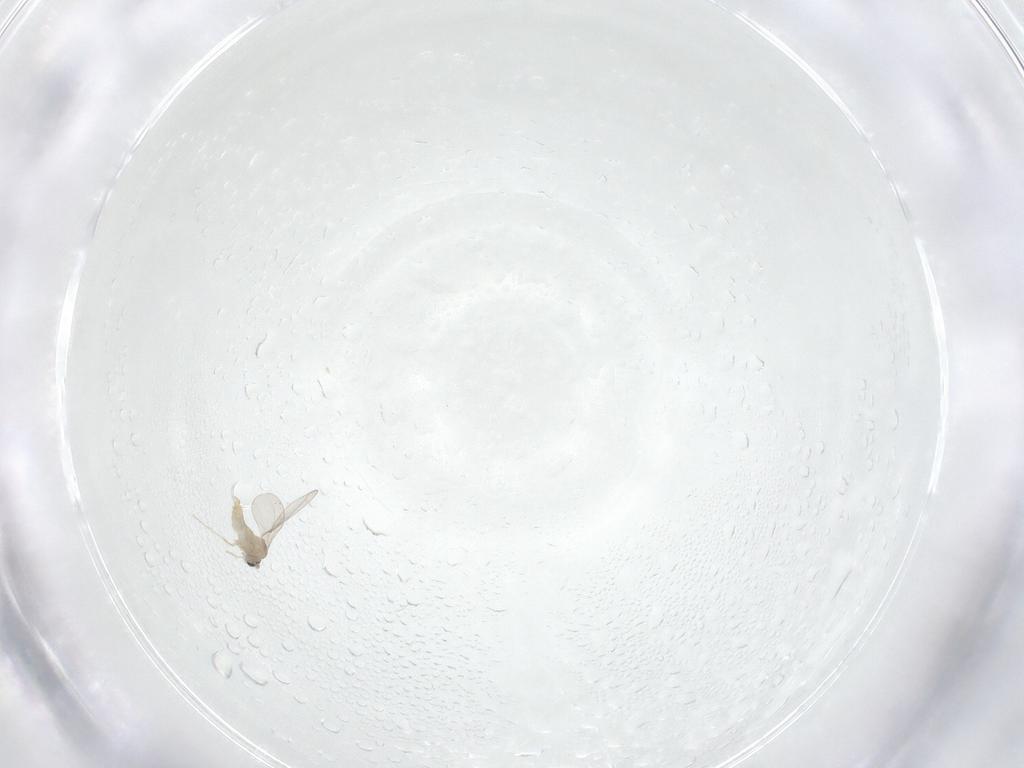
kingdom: Animalia
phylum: Arthropoda
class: Insecta
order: Diptera
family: Cecidomyiidae
